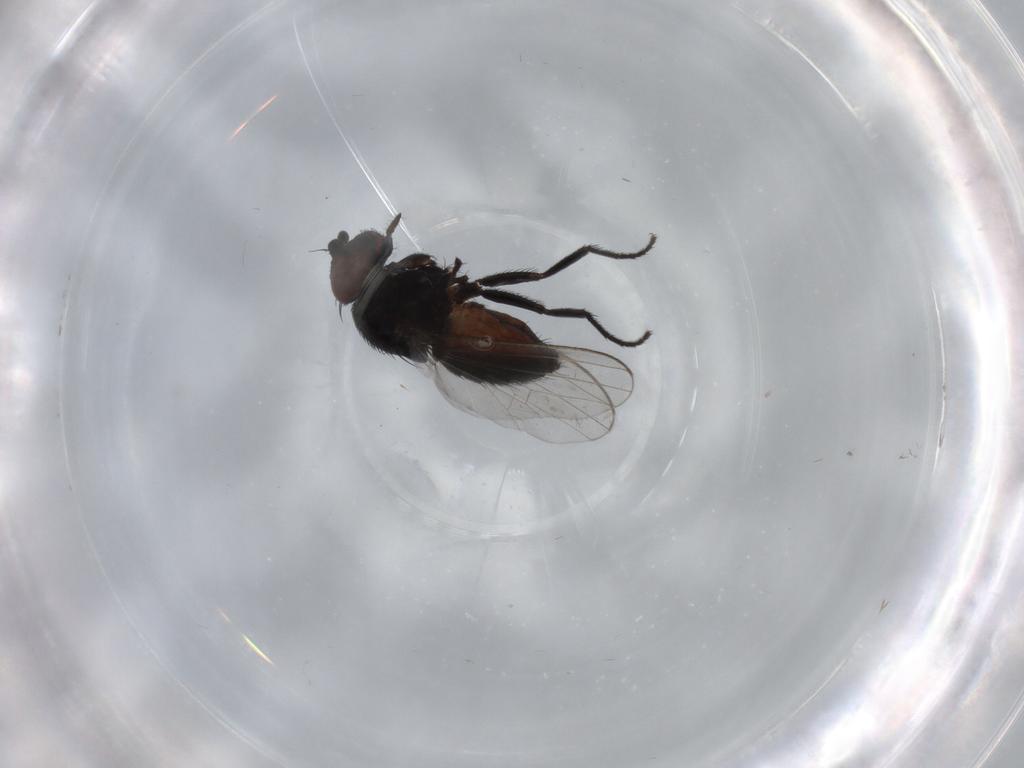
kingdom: Animalia
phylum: Arthropoda
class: Insecta
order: Diptera
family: Milichiidae
